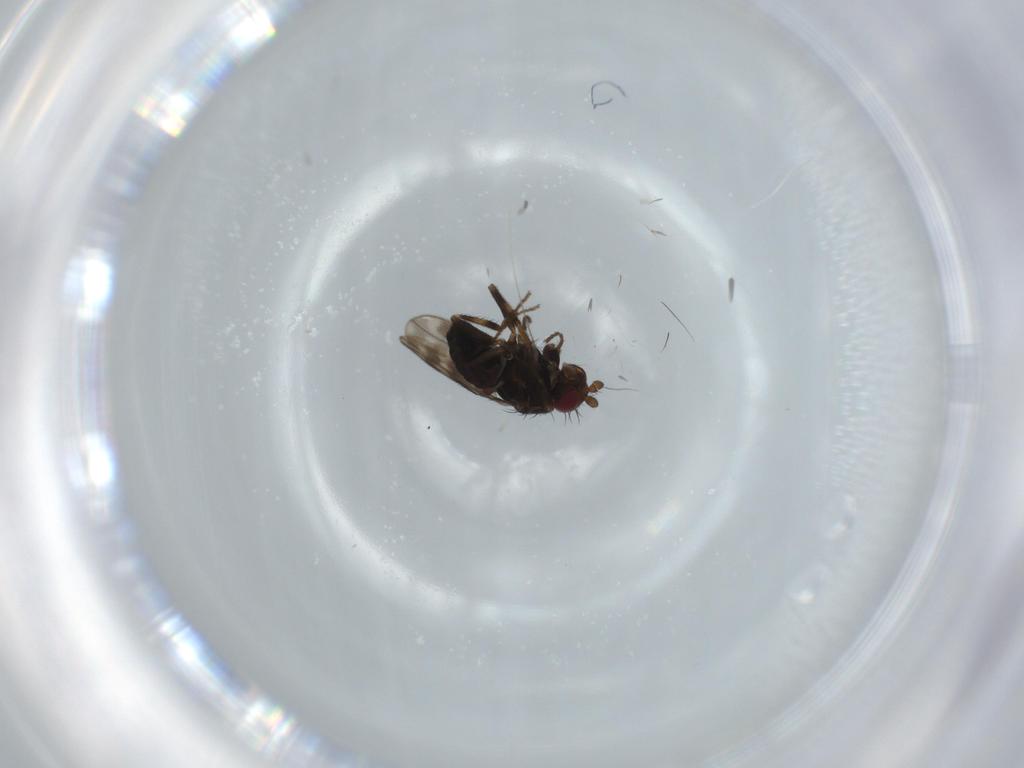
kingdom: Animalia
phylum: Arthropoda
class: Insecta
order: Diptera
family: Sphaeroceridae
